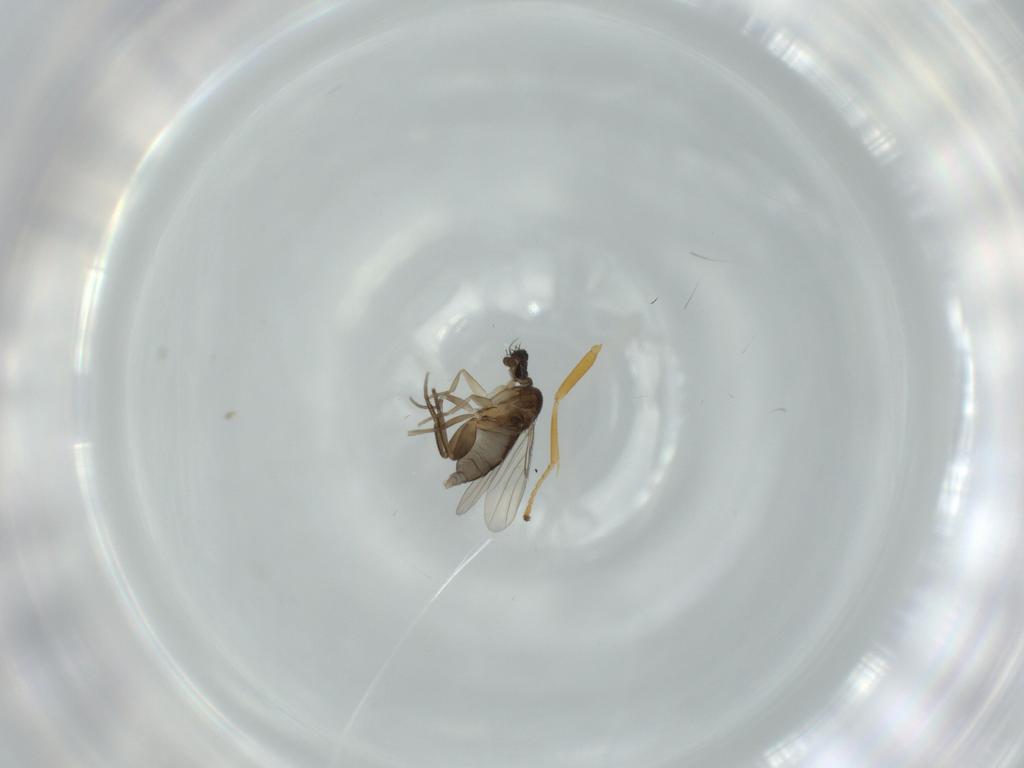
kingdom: Animalia
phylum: Arthropoda
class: Insecta
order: Diptera
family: Phoridae
